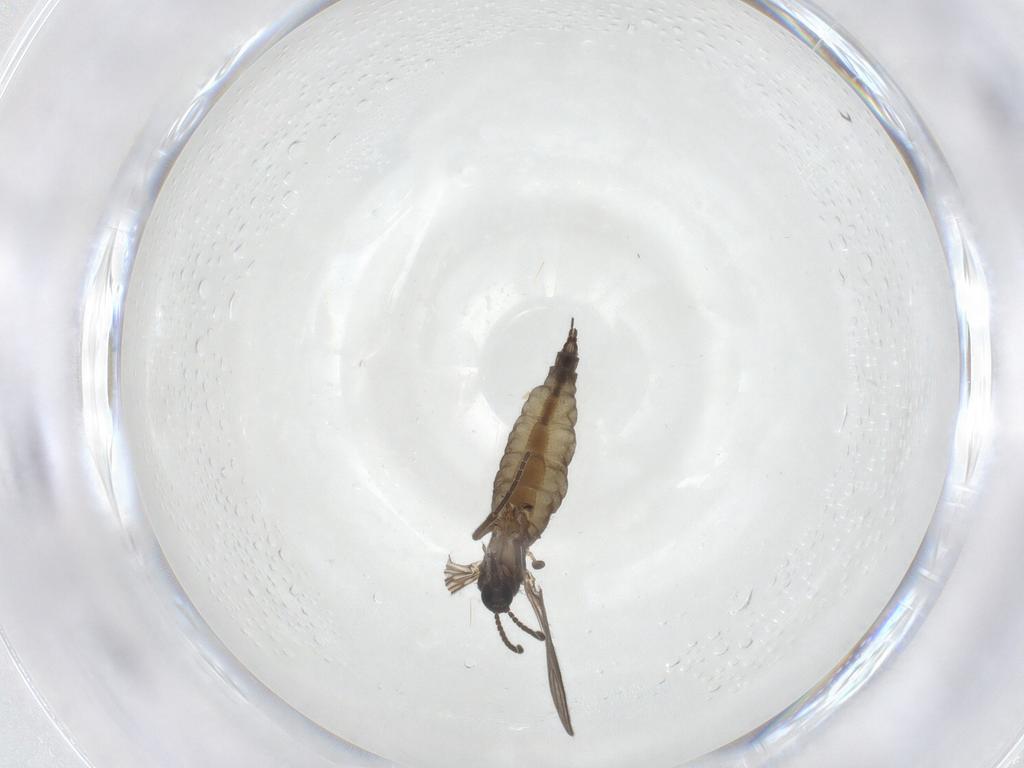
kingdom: Animalia
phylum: Arthropoda
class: Insecta
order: Diptera
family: Sciaridae
